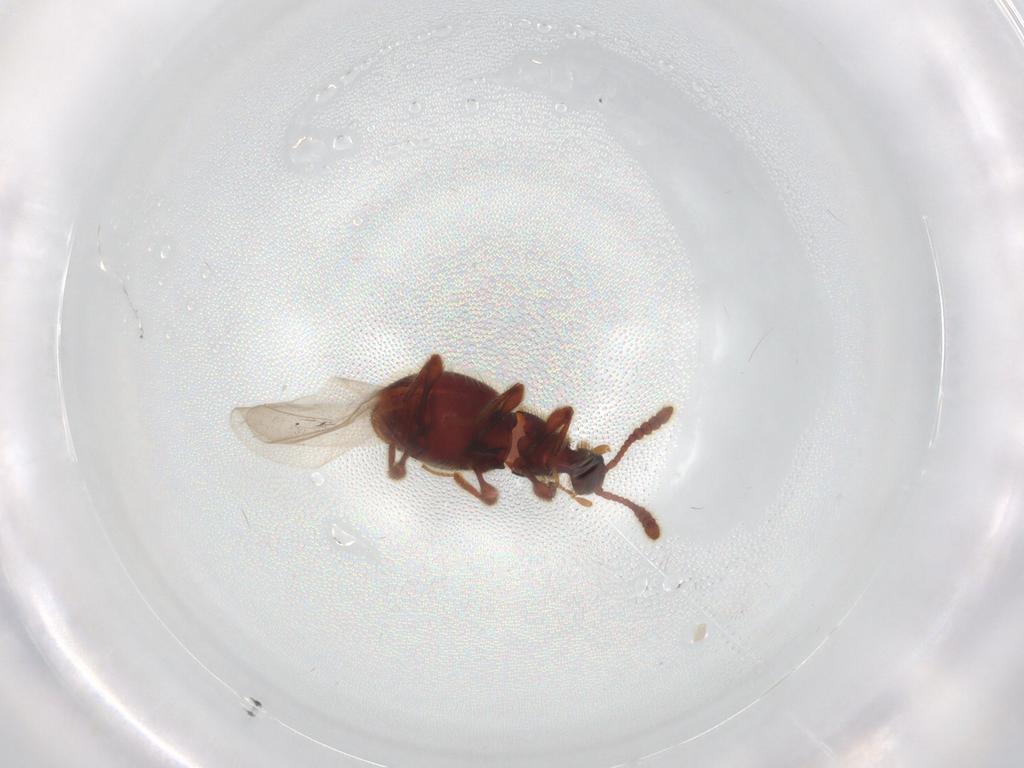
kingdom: Animalia
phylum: Arthropoda
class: Insecta
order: Coleoptera
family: Staphylinidae
